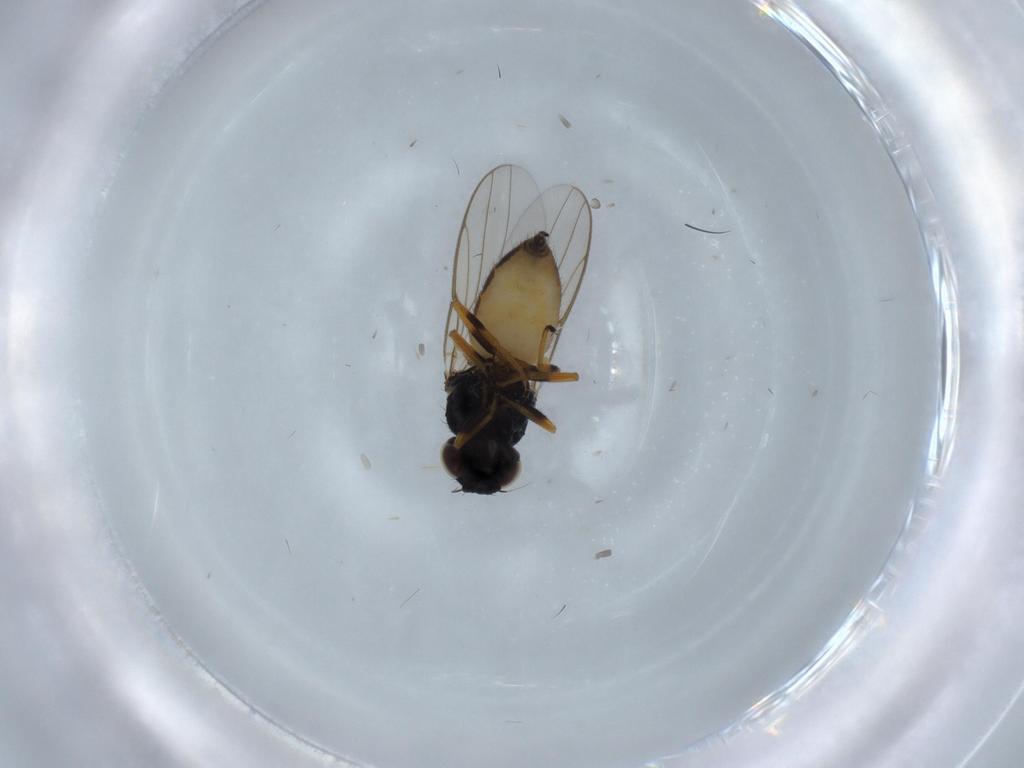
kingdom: Animalia
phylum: Arthropoda
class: Insecta
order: Diptera
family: Chloropidae
